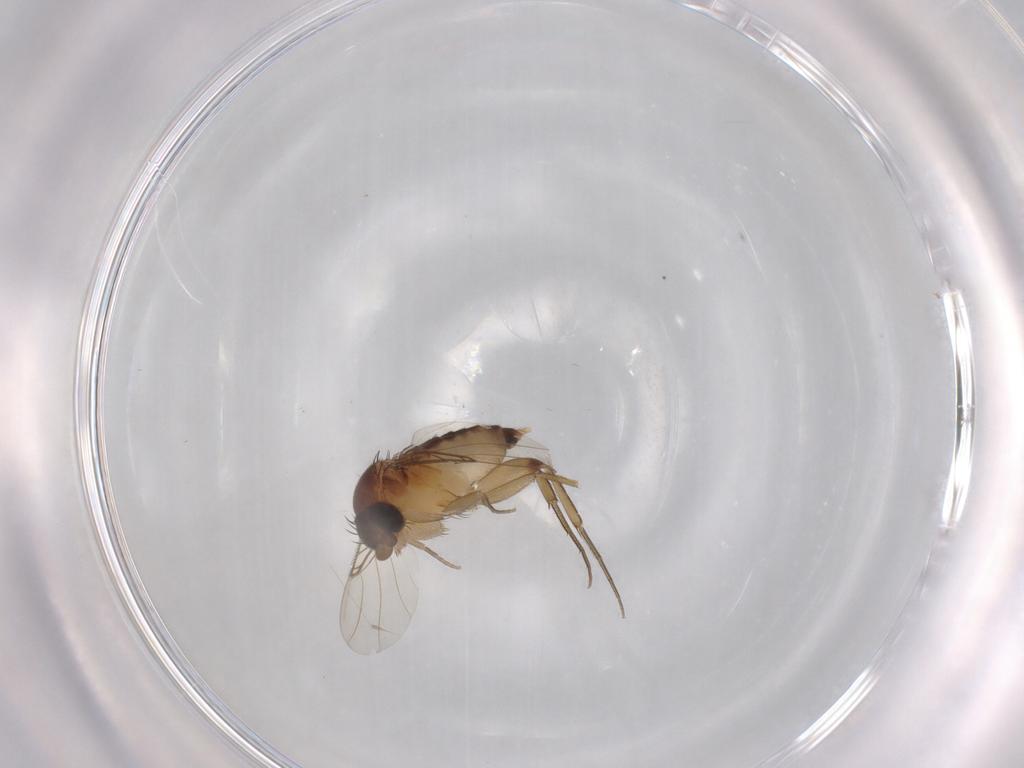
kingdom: Animalia
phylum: Arthropoda
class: Insecta
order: Diptera
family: Phoridae
